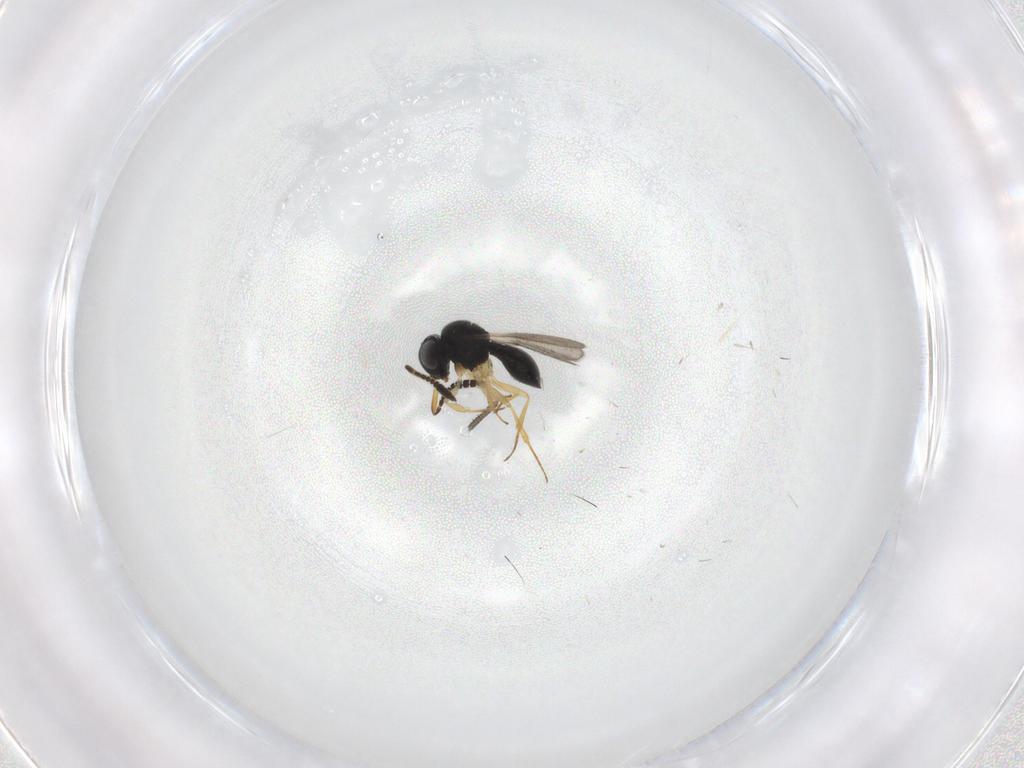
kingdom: Animalia
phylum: Arthropoda
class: Insecta
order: Hymenoptera
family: Scelionidae
